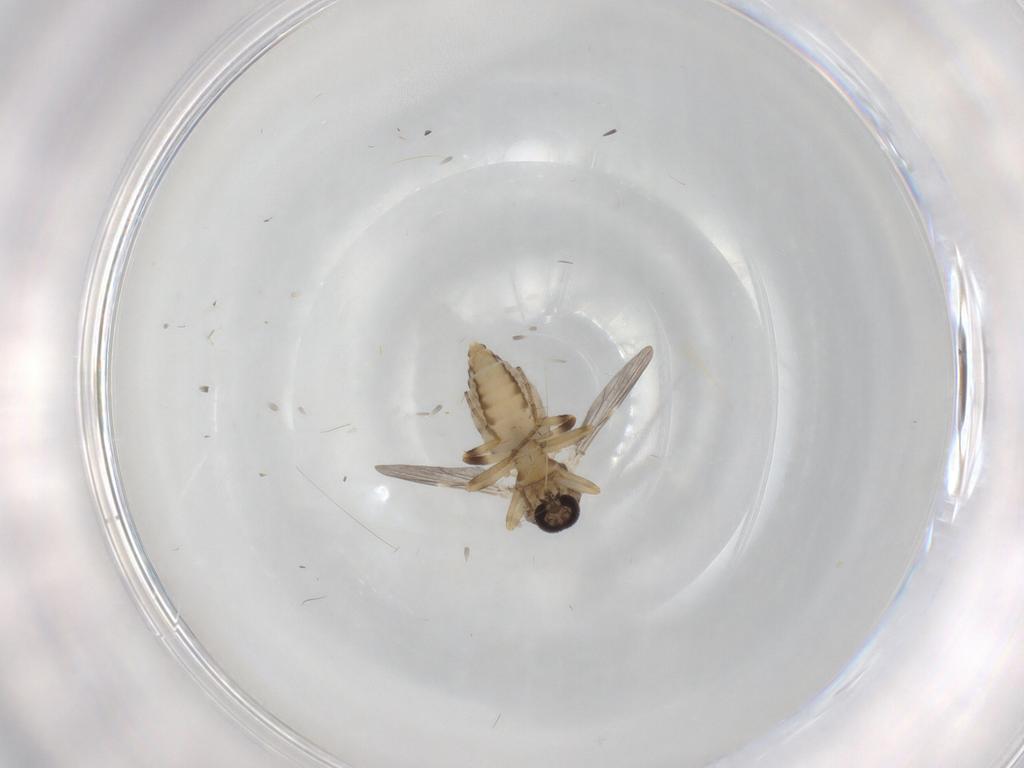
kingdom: Animalia
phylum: Arthropoda
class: Insecta
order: Diptera
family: Ceratopogonidae
